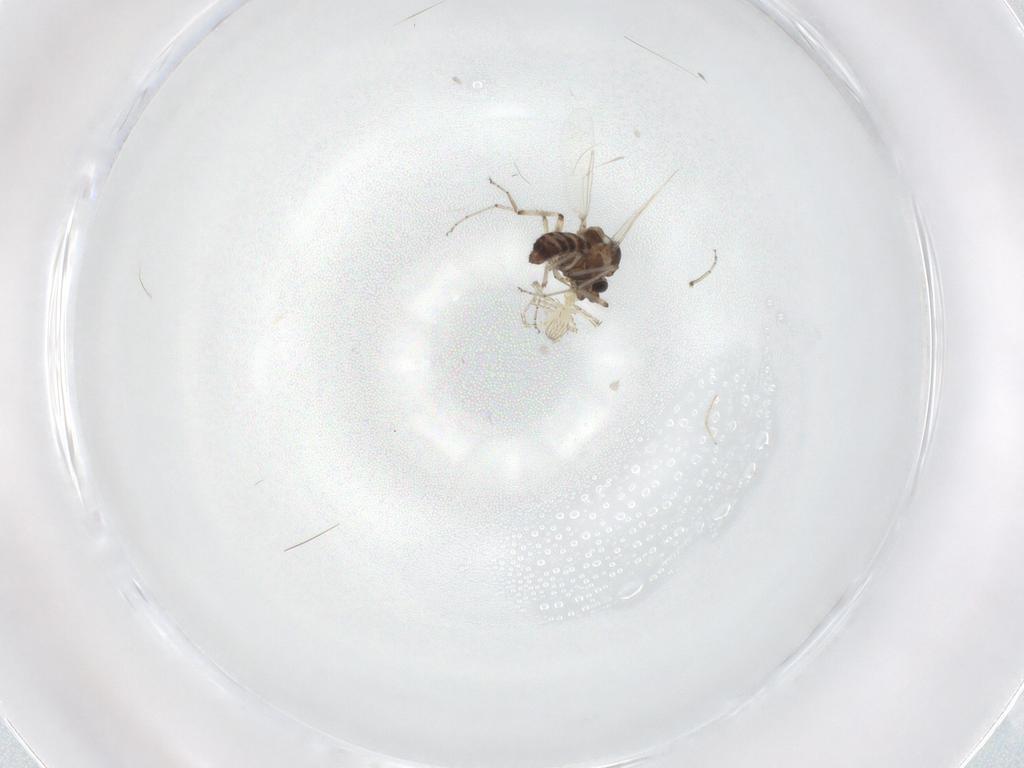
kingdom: Animalia
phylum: Arthropoda
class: Insecta
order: Diptera
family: Ceratopogonidae
